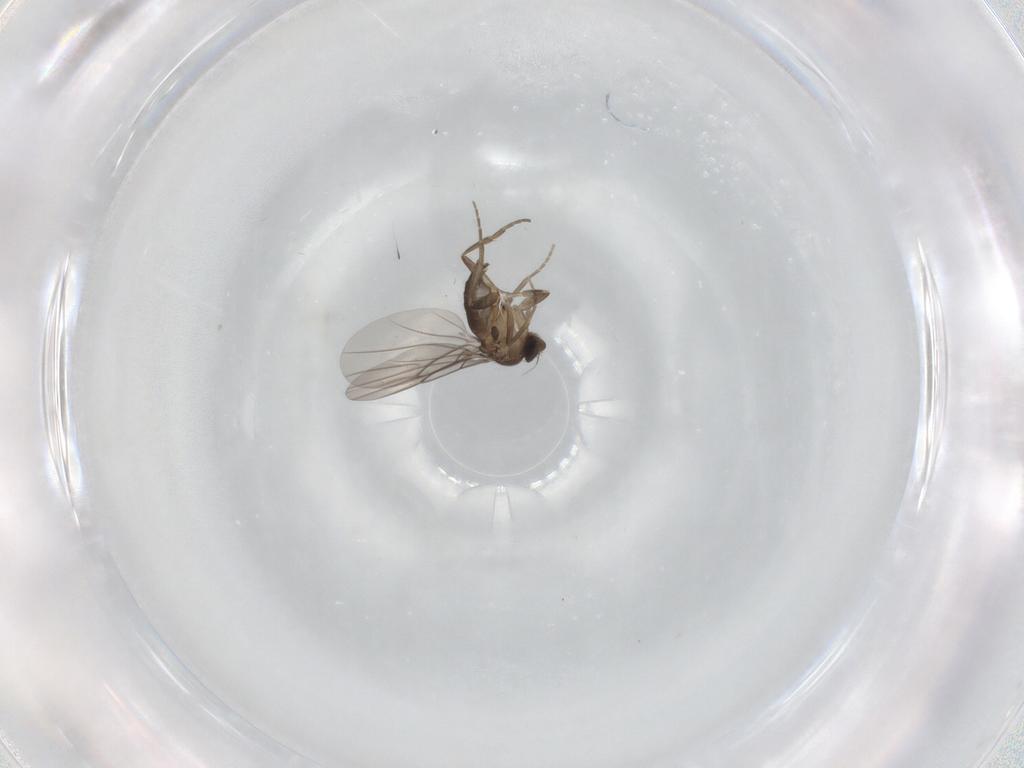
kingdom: Animalia
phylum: Arthropoda
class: Insecta
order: Diptera
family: Phoridae
